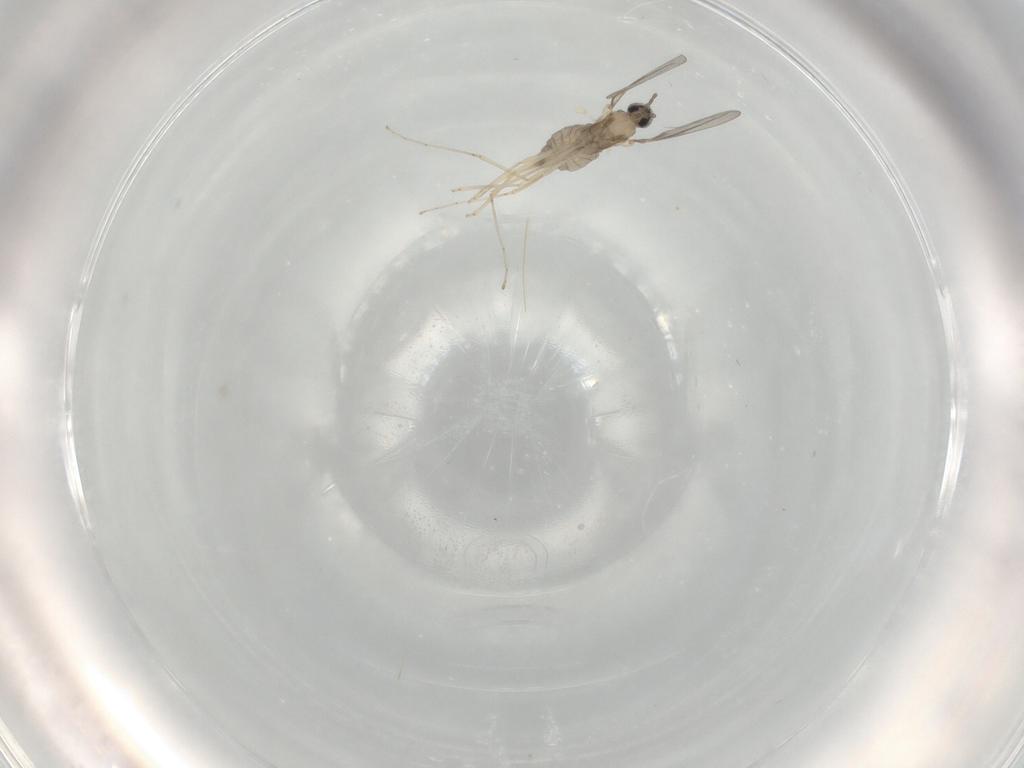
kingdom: Animalia
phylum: Arthropoda
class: Insecta
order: Diptera
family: Cecidomyiidae
